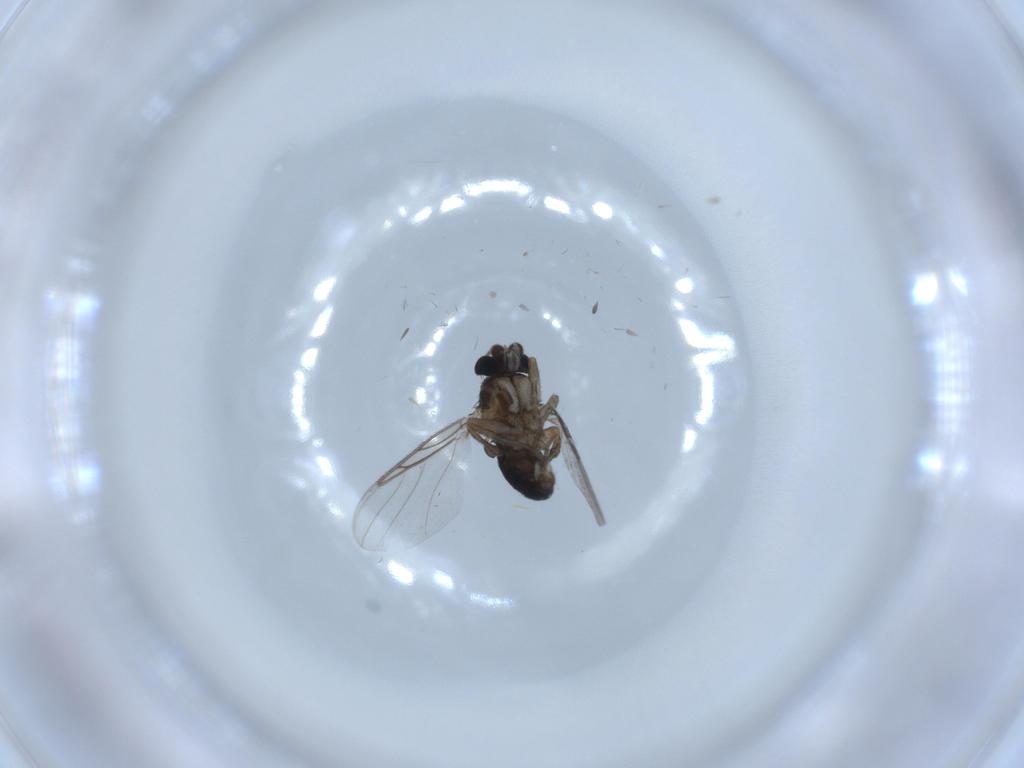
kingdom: Animalia
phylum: Arthropoda
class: Insecta
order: Diptera
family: Phoridae
